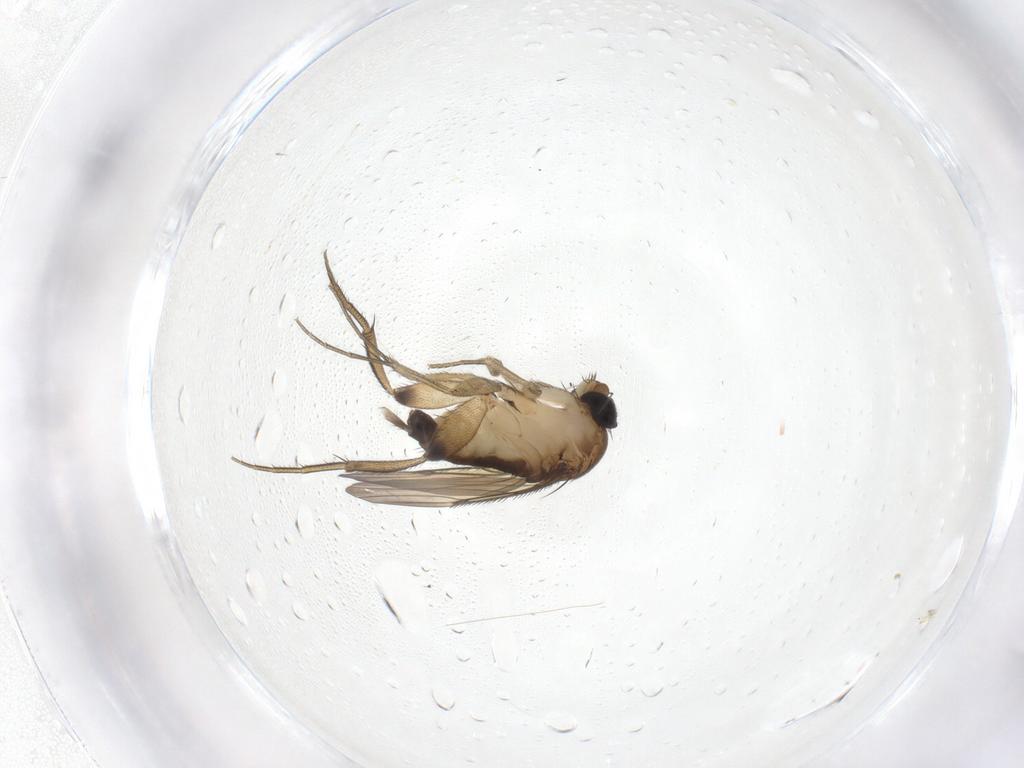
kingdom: Animalia
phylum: Arthropoda
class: Insecta
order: Diptera
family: Phoridae
